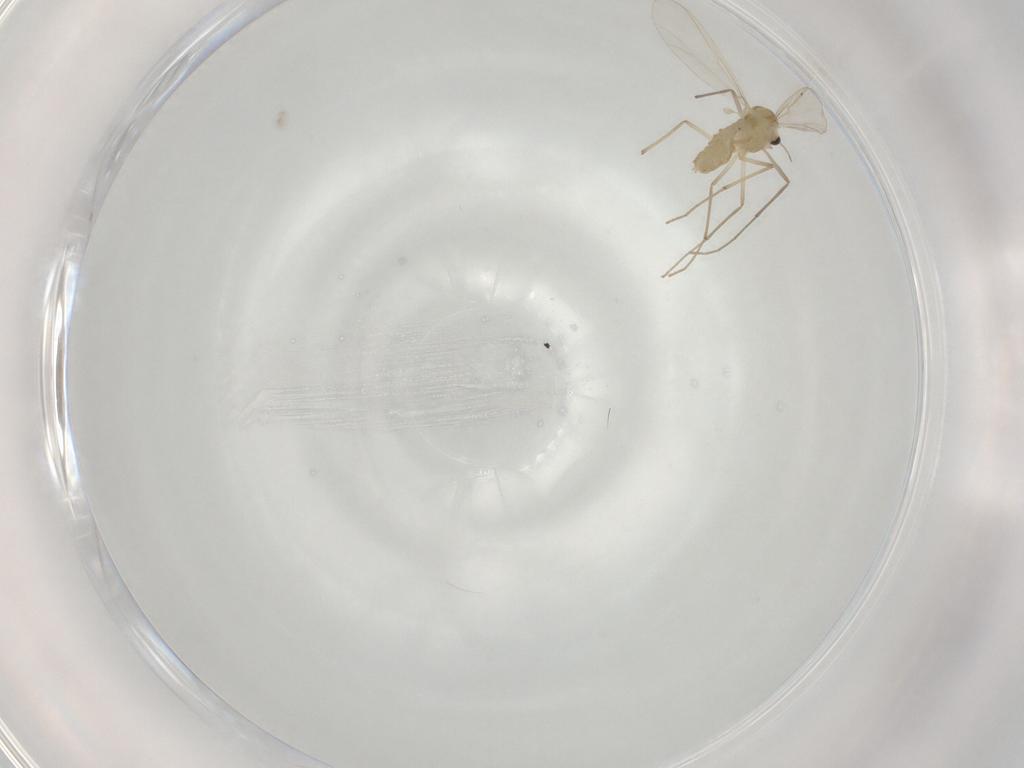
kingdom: Animalia
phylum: Arthropoda
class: Insecta
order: Diptera
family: Chironomidae
